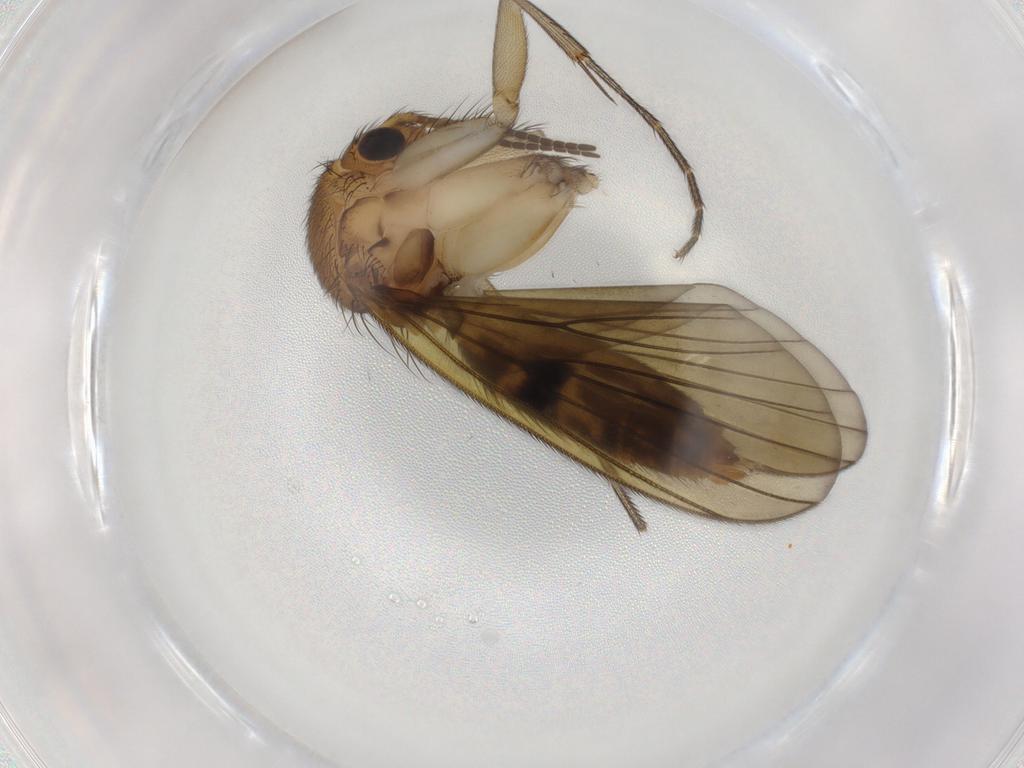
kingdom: Animalia
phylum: Arthropoda
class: Insecta
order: Diptera
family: Mycetophilidae
